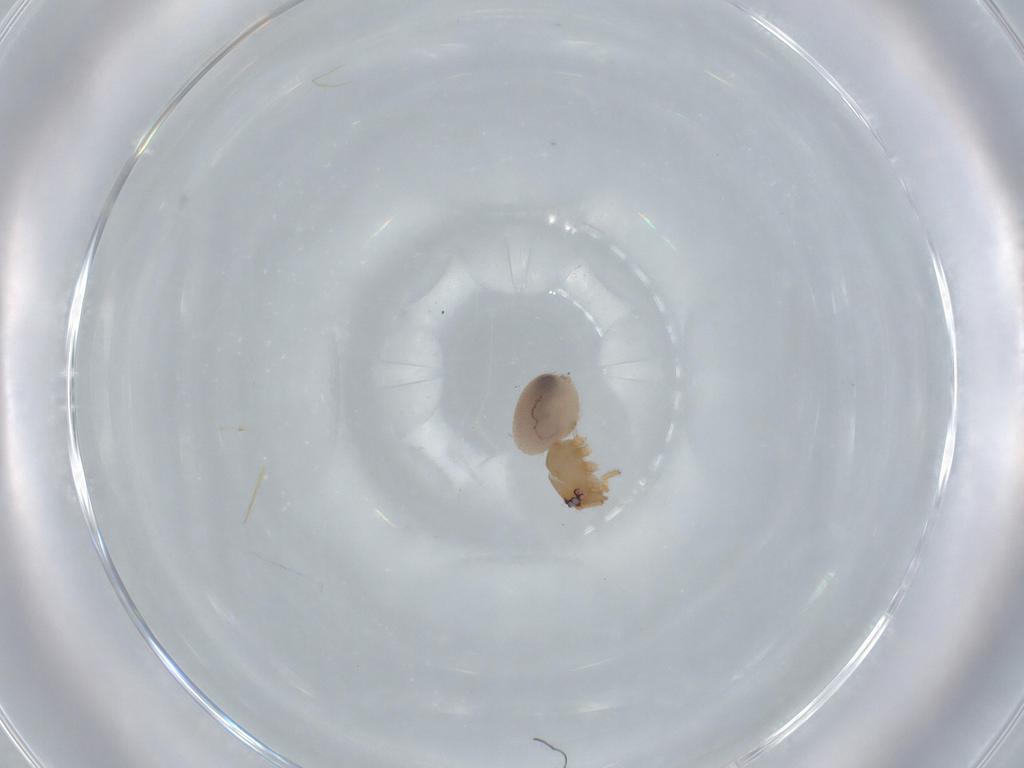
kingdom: Animalia
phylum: Arthropoda
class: Arachnida
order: Araneae
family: Oonopidae
